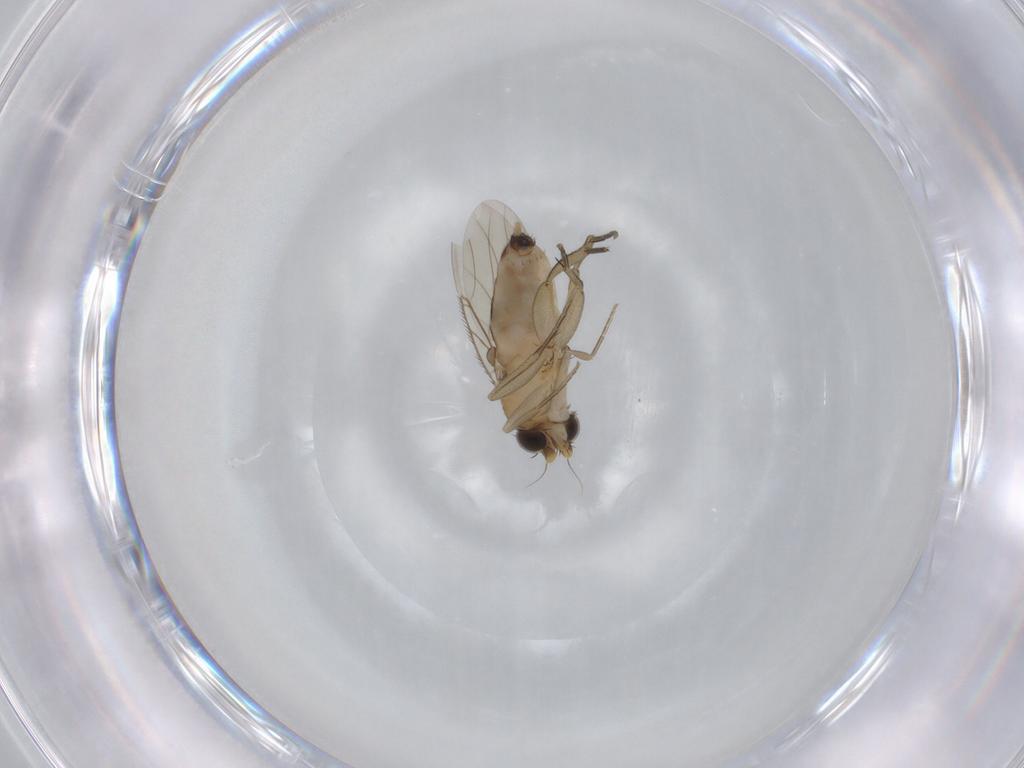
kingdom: Animalia
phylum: Arthropoda
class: Insecta
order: Diptera
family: Phoridae
